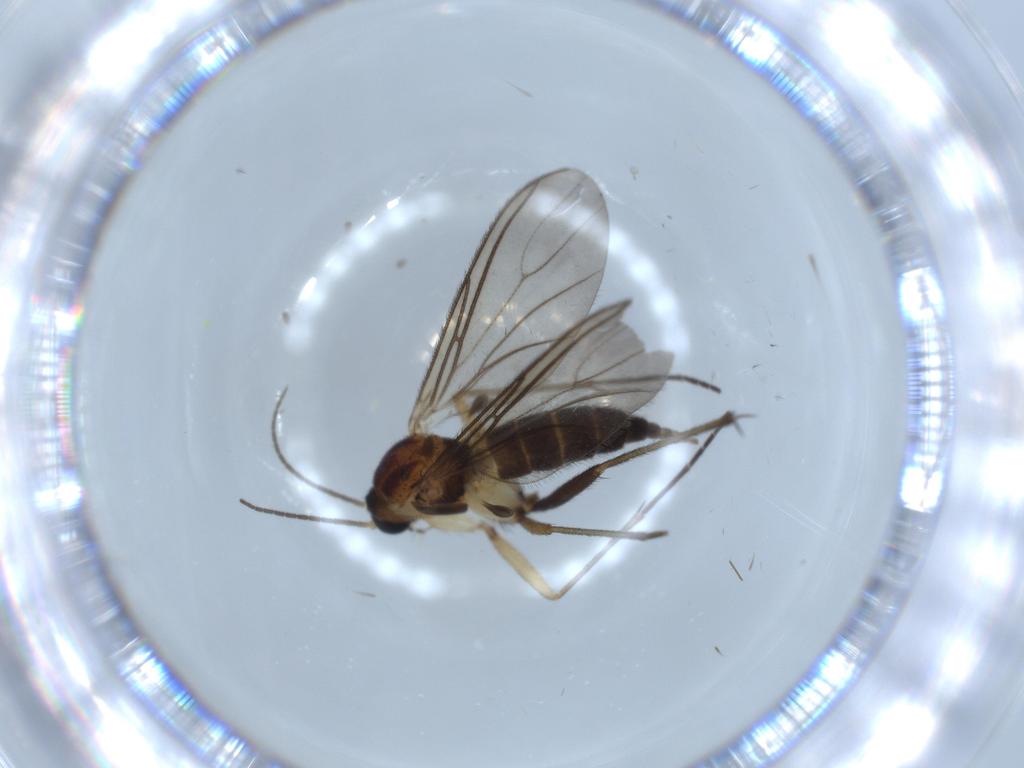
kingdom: Animalia
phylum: Arthropoda
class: Insecta
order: Diptera
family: Sciaridae
